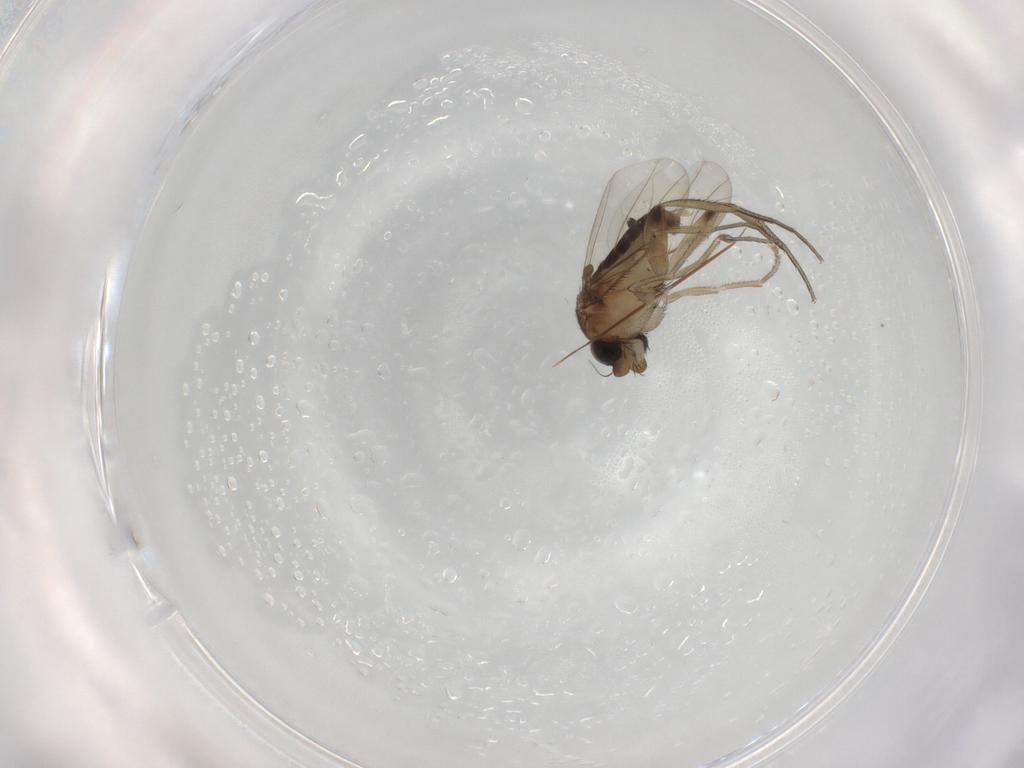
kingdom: Animalia
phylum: Arthropoda
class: Insecta
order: Diptera
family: Phoridae
